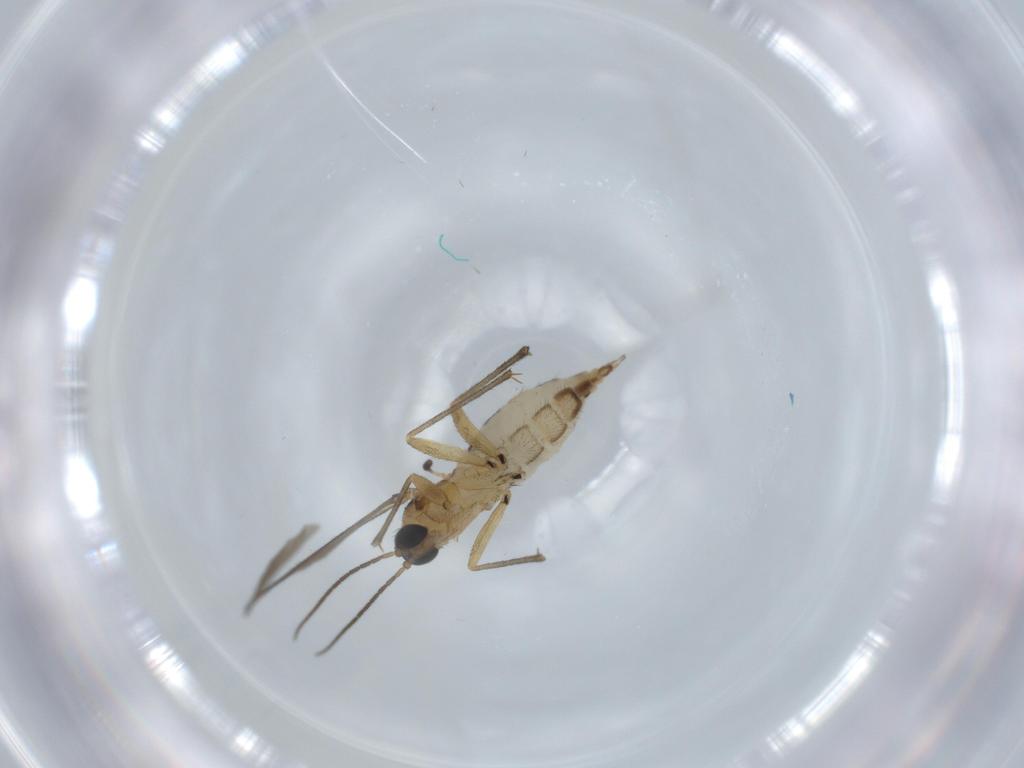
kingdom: Animalia
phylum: Arthropoda
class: Insecta
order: Diptera
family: Sciaridae
